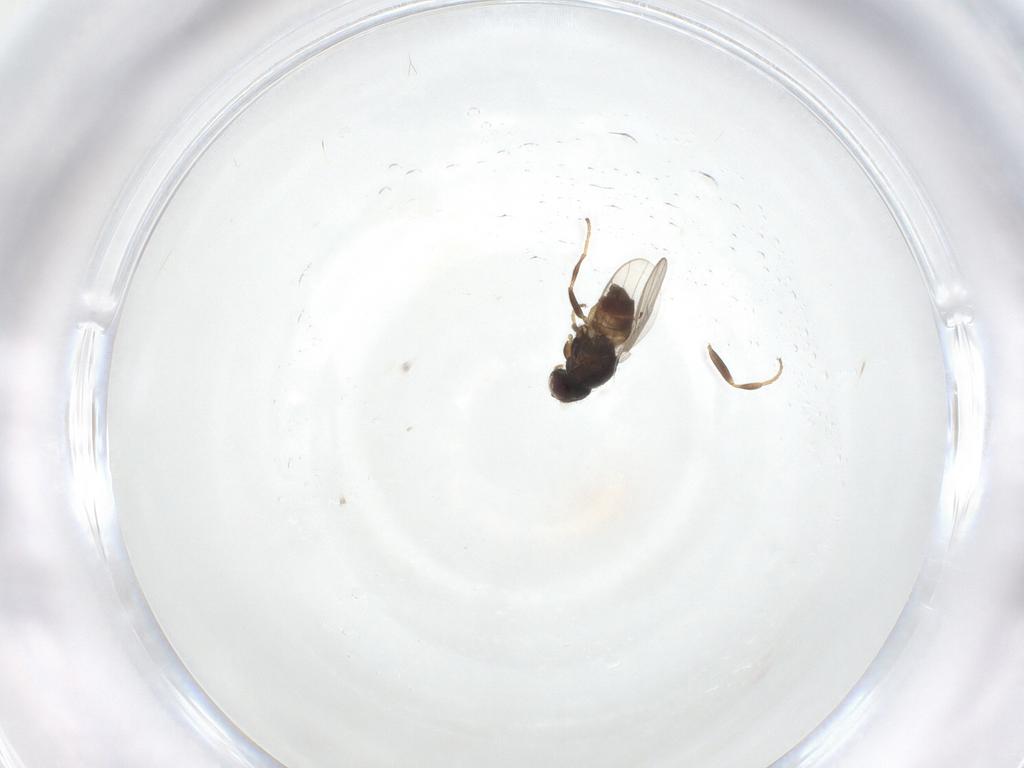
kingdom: Animalia
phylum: Arthropoda
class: Insecta
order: Diptera
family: Chloropidae
